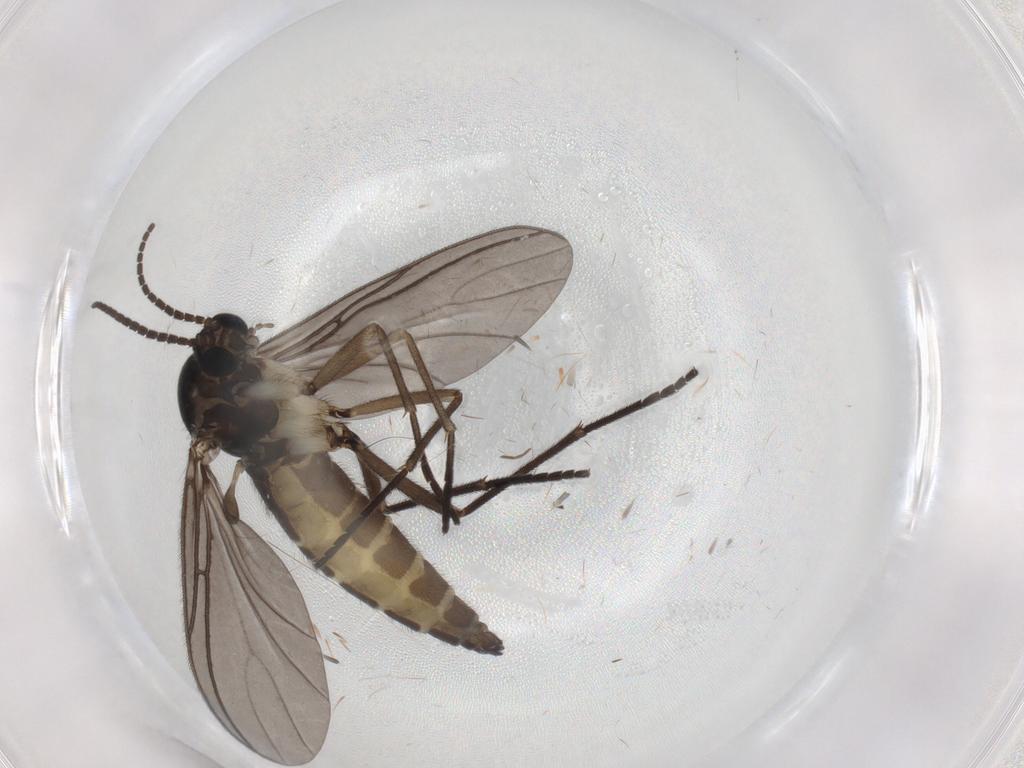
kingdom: Animalia
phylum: Arthropoda
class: Insecta
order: Diptera
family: Sciaridae
